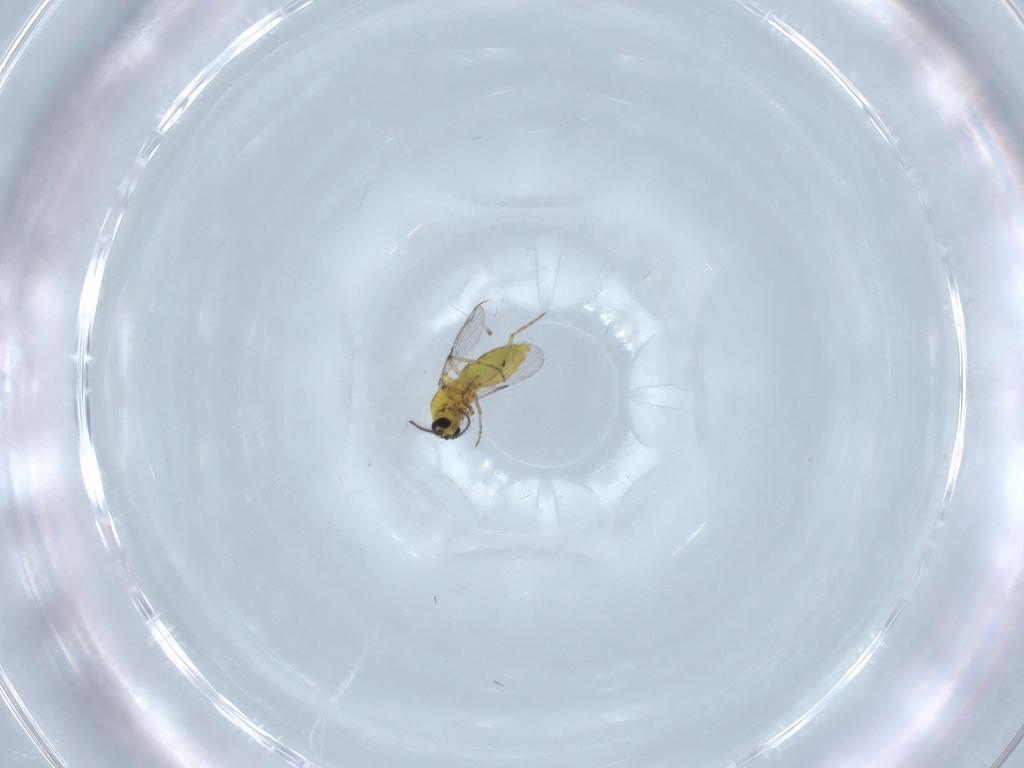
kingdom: Animalia
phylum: Arthropoda
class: Insecta
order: Diptera
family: Ceratopogonidae
